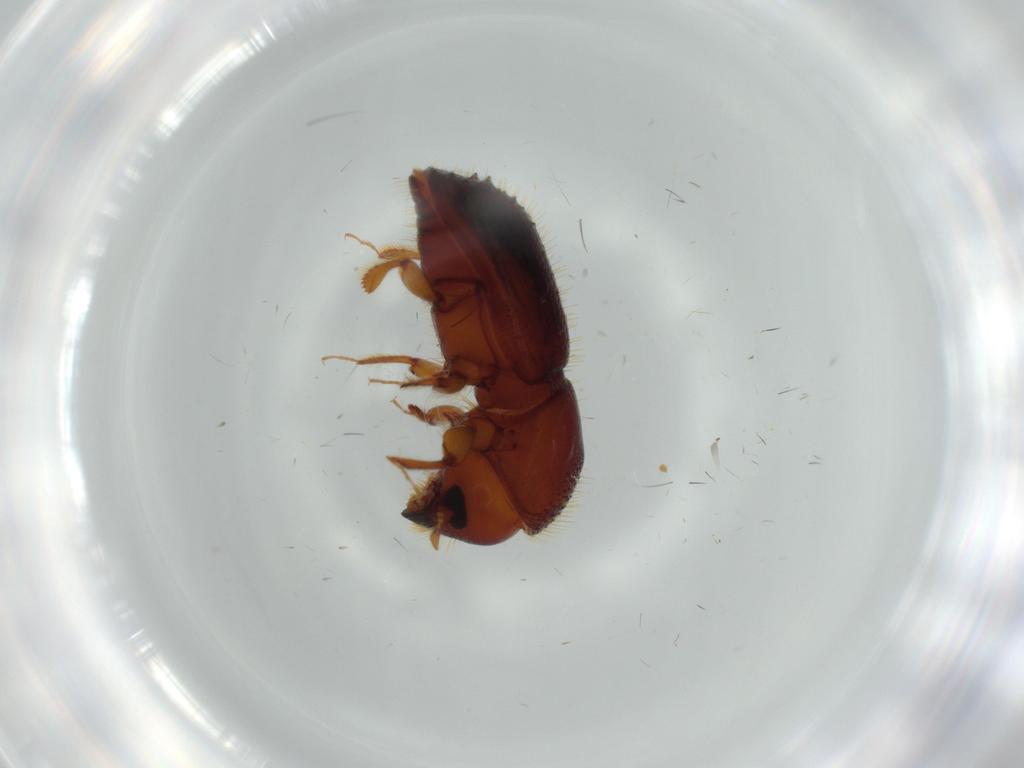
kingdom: Animalia
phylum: Arthropoda
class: Insecta
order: Coleoptera
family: Curculionidae
